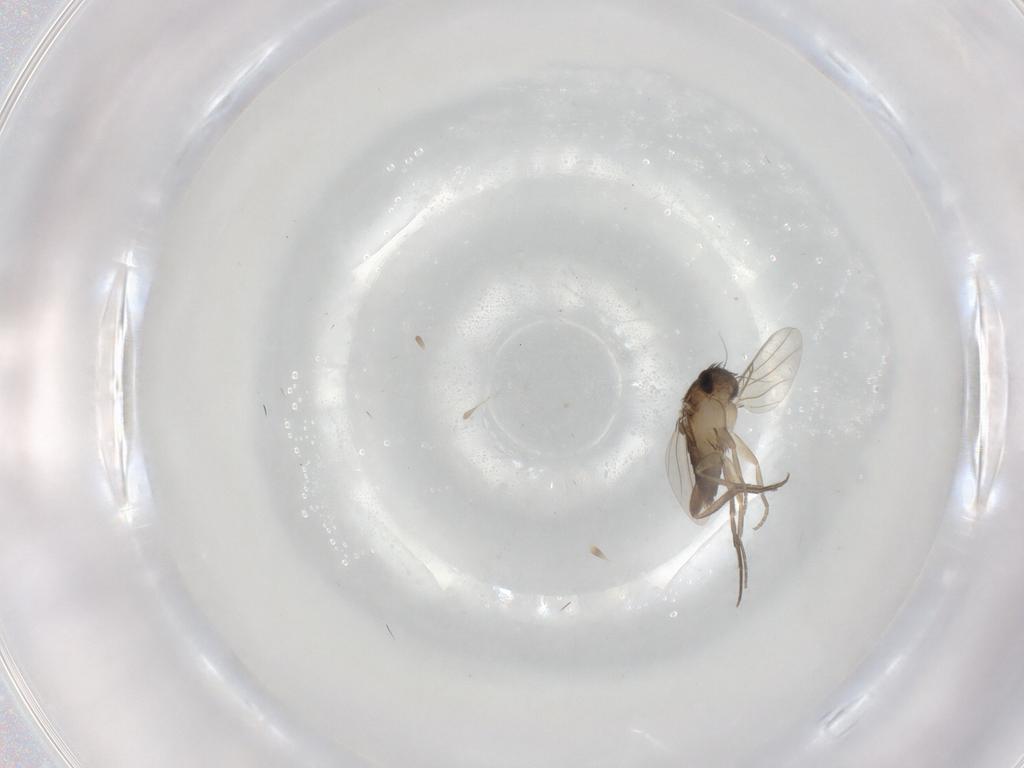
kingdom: Animalia
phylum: Arthropoda
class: Insecta
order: Diptera
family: Phoridae
